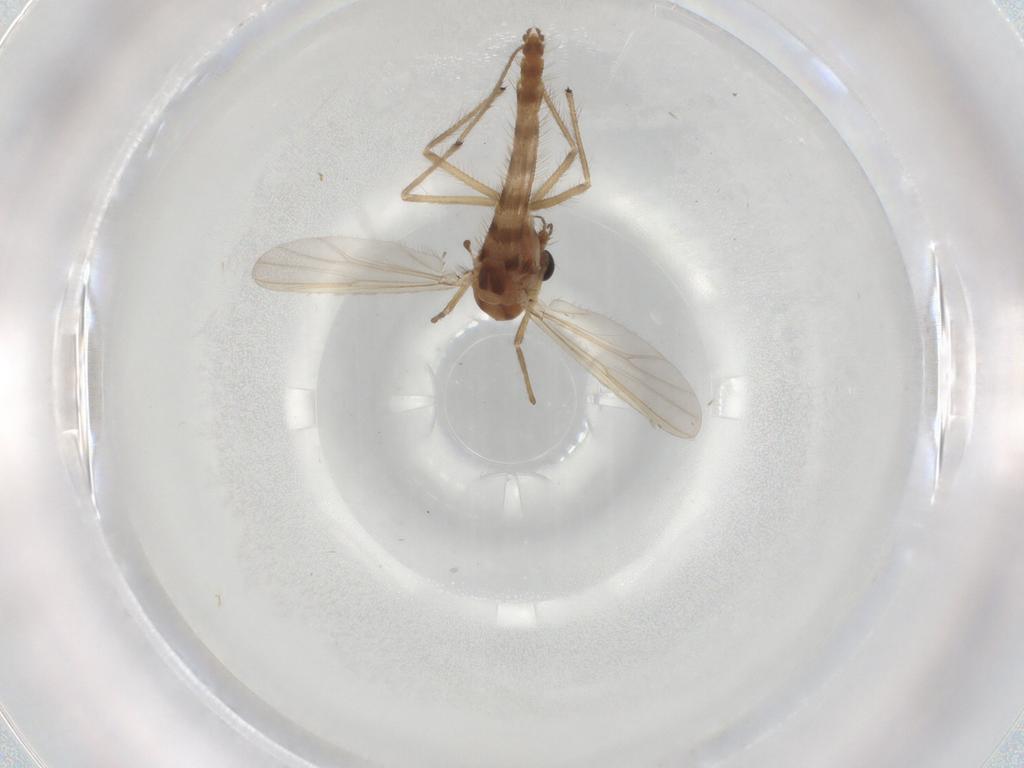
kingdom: Animalia
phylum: Arthropoda
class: Insecta
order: Diptera
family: Chironomidae
